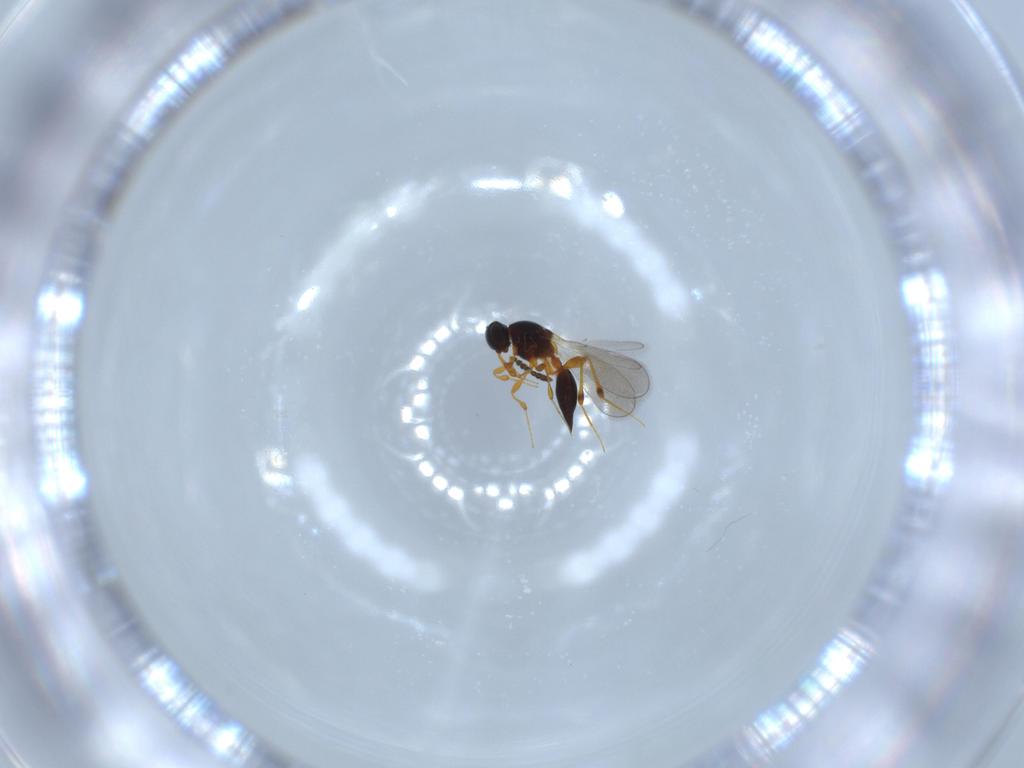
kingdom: Animalia
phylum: Arthropoda
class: Insecta
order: Hymenoptera
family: Platygastridae
